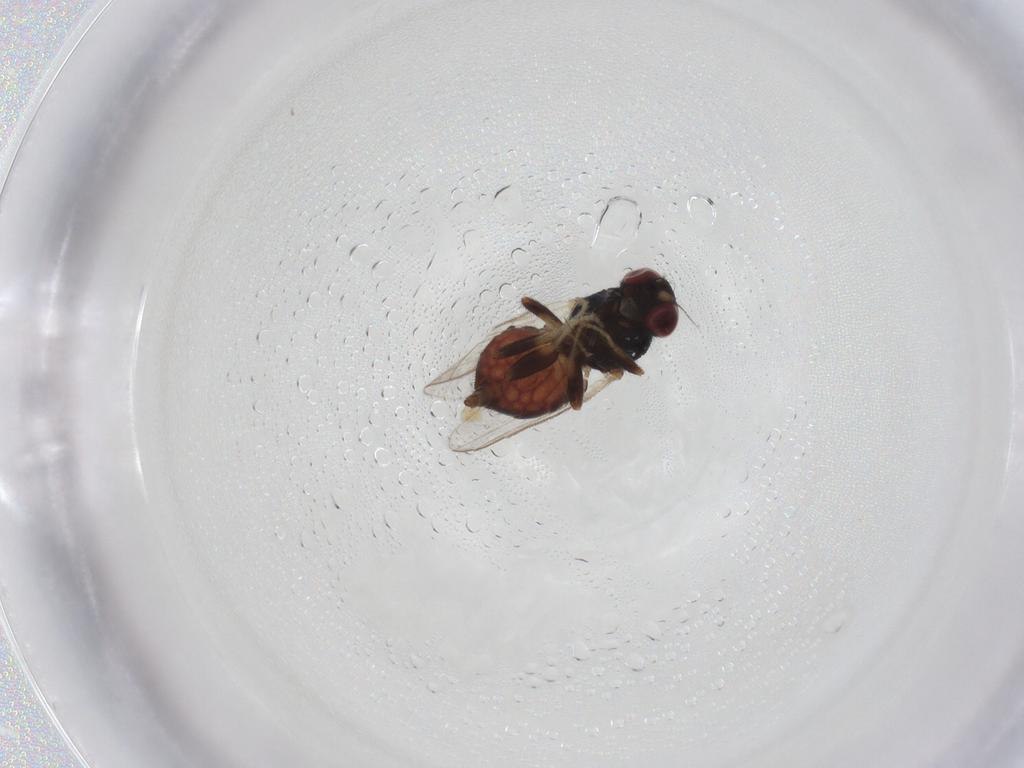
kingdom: Animalia
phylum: Arthropoda
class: Insecta
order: Diptera
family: Chloropidae
